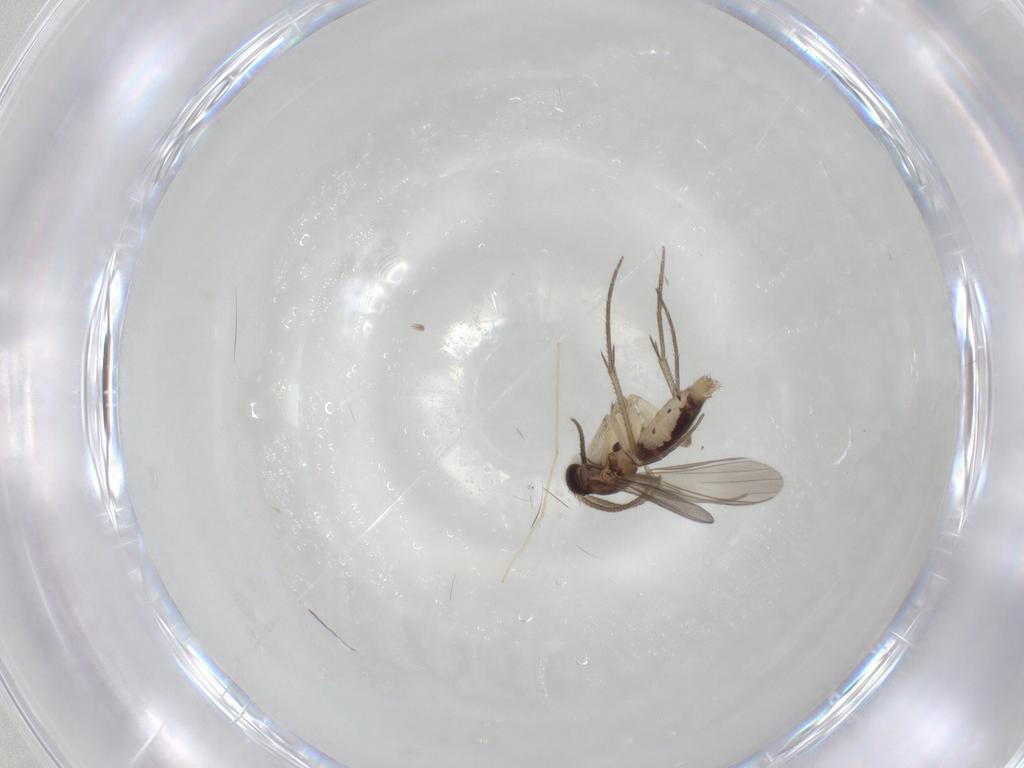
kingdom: Animalia
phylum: Arthropoda
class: Insecta
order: Diptera
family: Mycetophilidae
